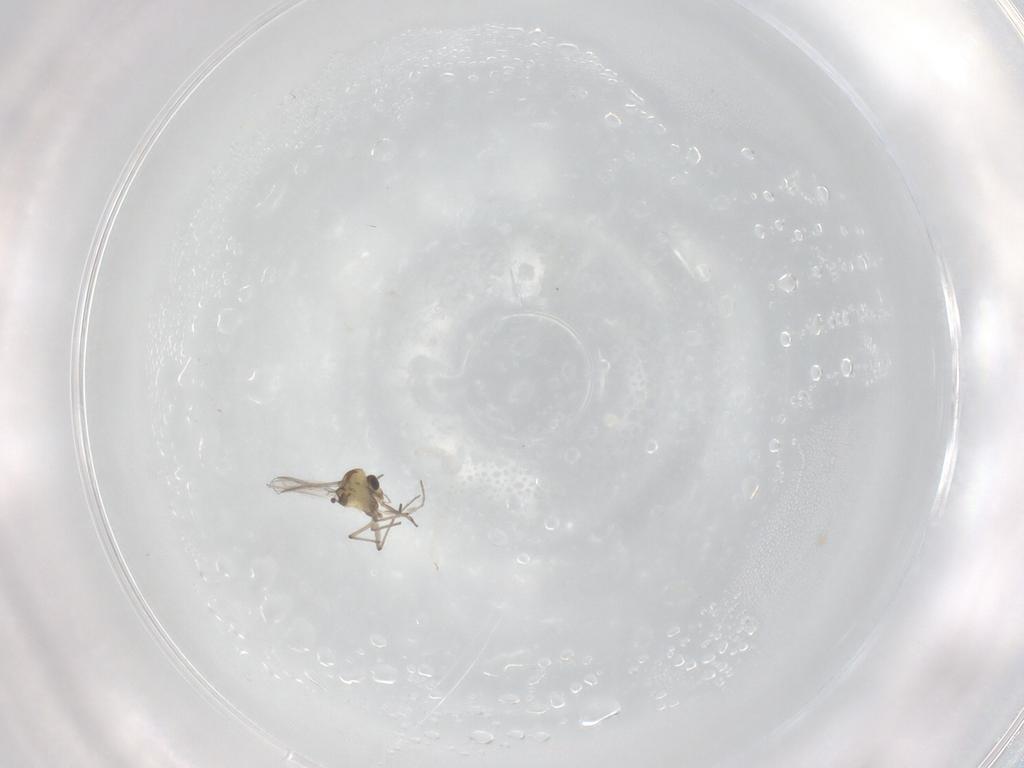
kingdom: Animalia
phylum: Arthropoda
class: Insecta
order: Diptera
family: Chironomidae
